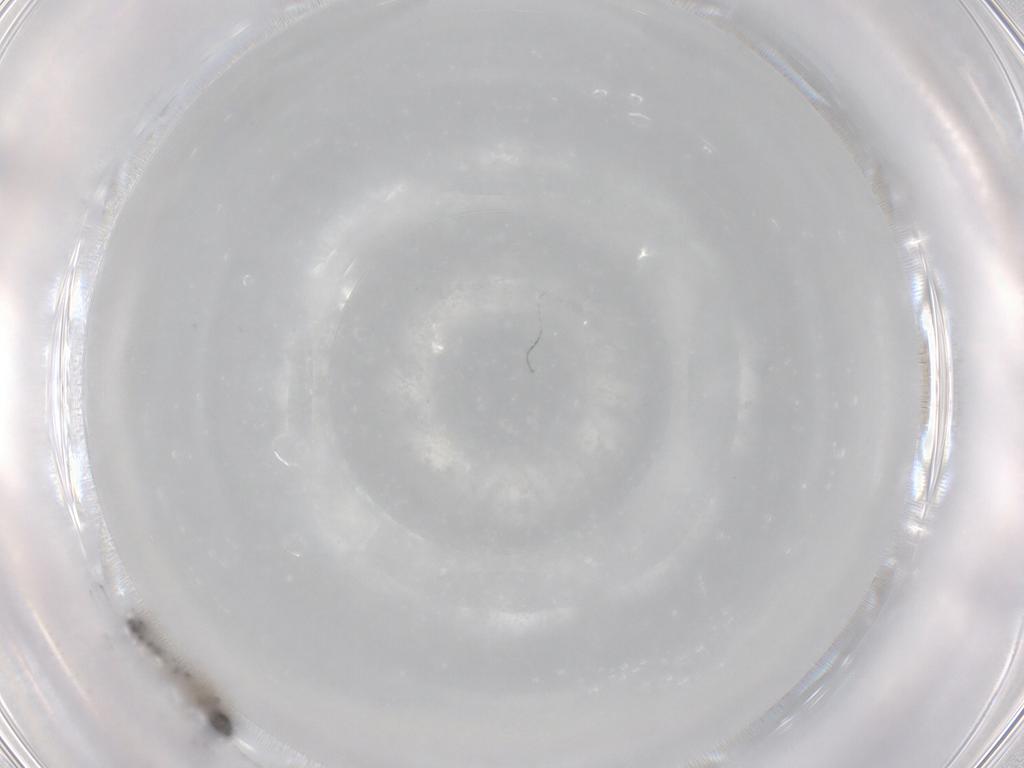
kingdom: Animalia
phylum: Arthropoda
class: Insecta
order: Diptera
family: Cecidomyiidae
